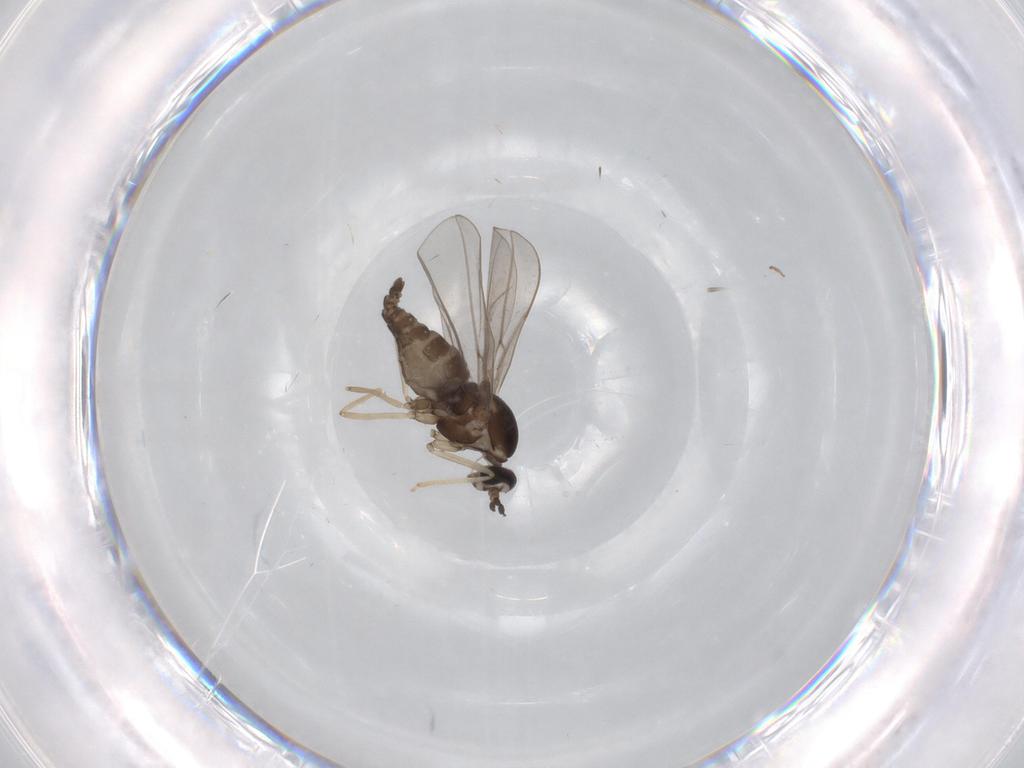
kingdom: Animalia
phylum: Arthropoda
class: Insecta
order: Diptera
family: Cecidomyiidae
